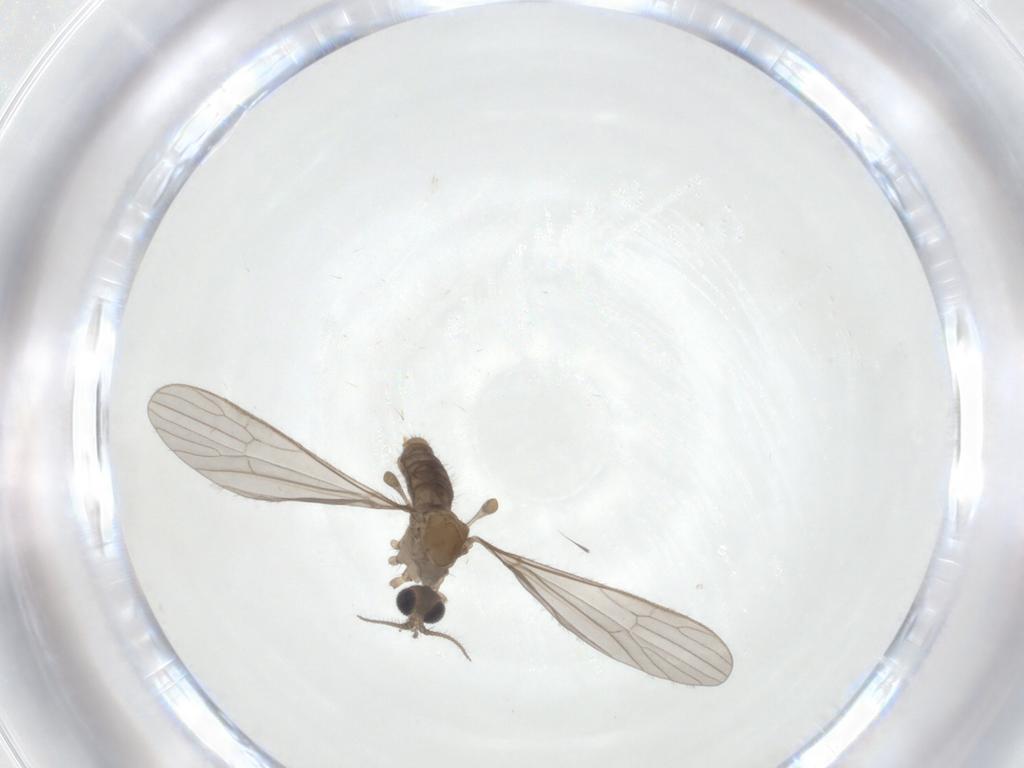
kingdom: Animalia
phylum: Arthropoda
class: Insecta
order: Diptera
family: Limoniidae
